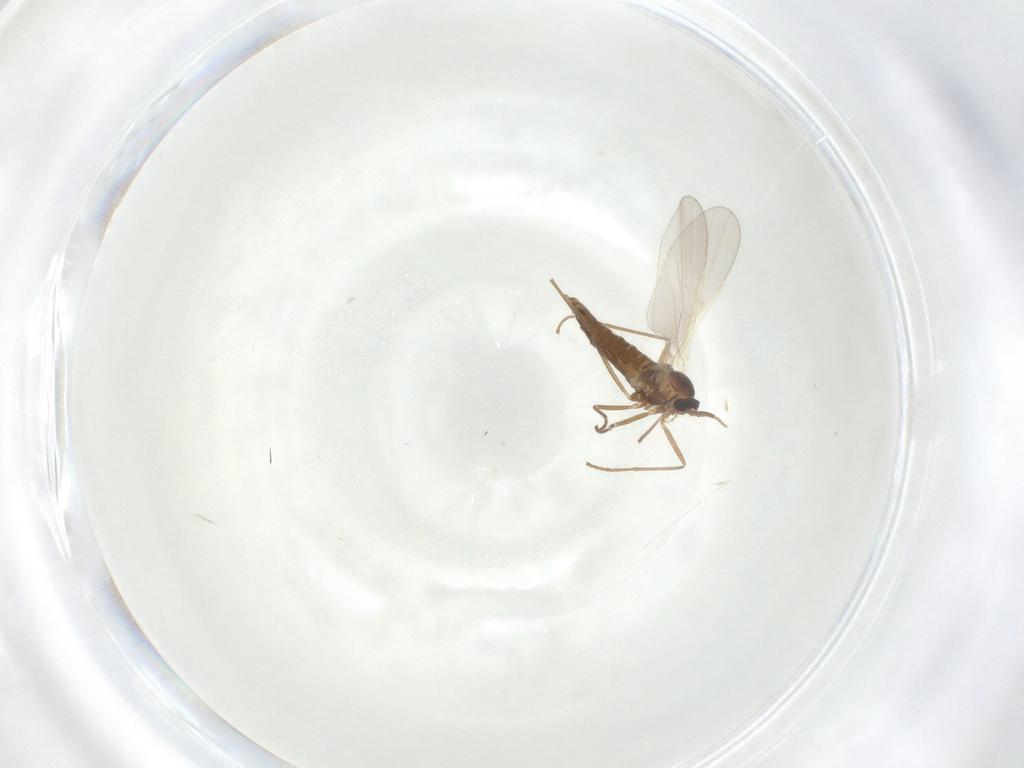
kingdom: Animalia
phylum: Arthropoda
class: Insecta
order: Diptera
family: Cecidomyiidae
